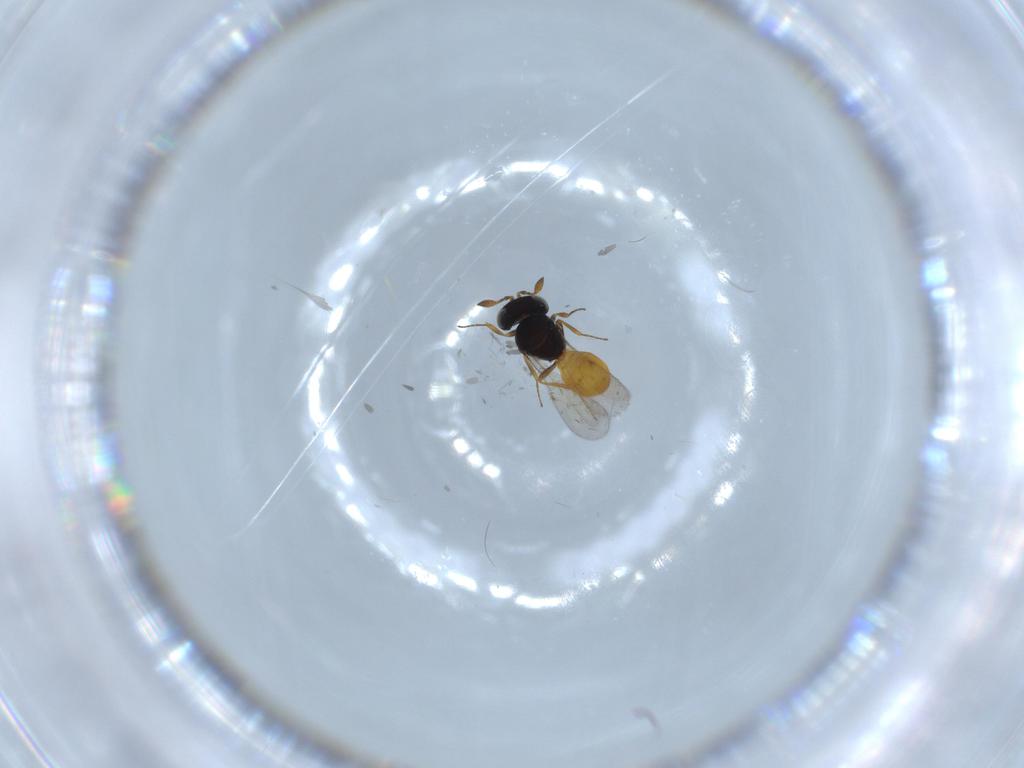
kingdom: Animalia
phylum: Arthropoda
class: Insecta
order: Hymenoptera
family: Scelionidae
